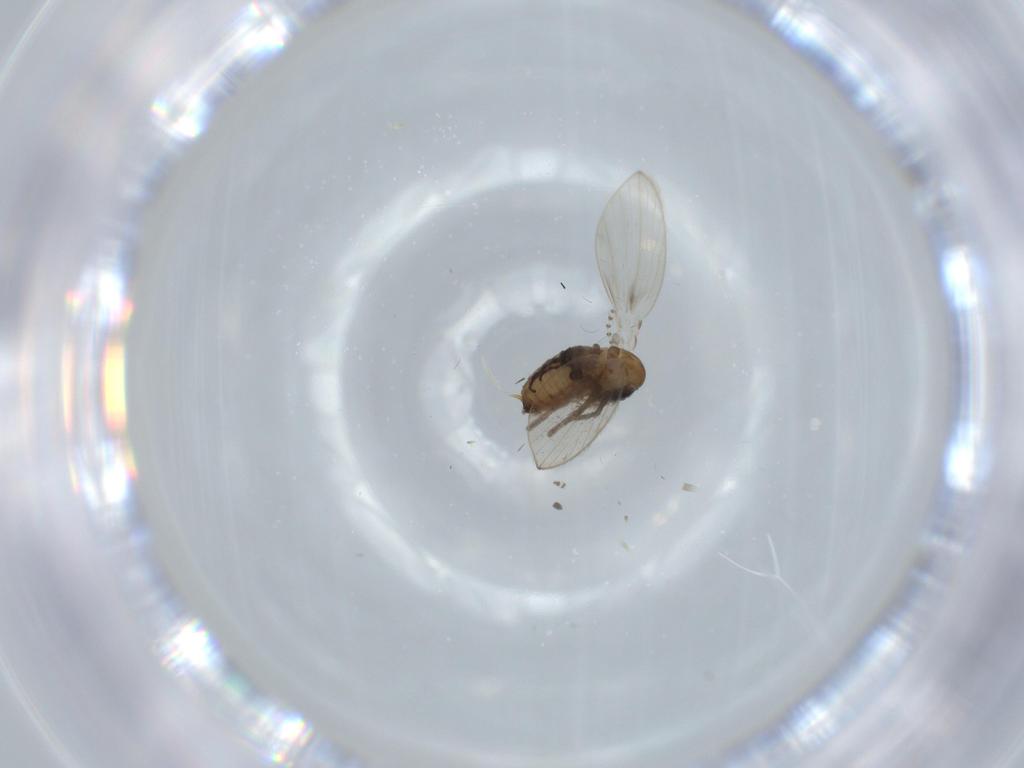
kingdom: Animalia
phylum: Arthropoda
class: Insecta
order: Diptera
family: Psychodidae
